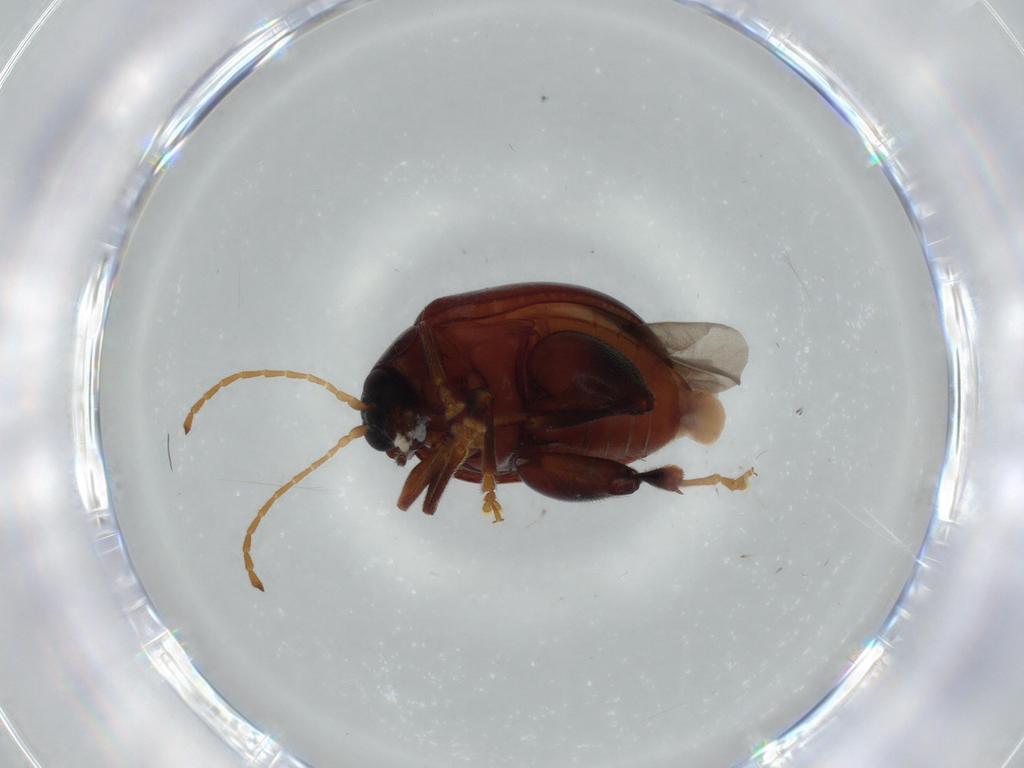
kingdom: Animalia
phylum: Arthropoda
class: Insecta
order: Coleoptera
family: Chrysomelidae
